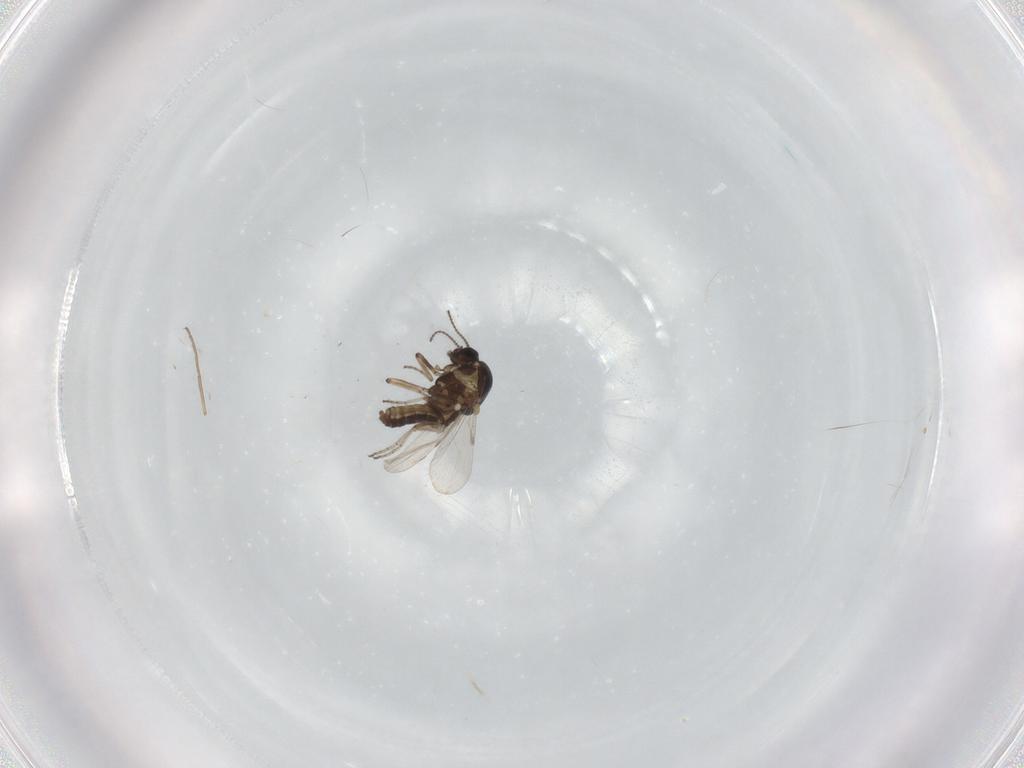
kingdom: Animalia
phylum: Arthropoda
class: Insecta
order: Diptera
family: Ceratopogonidae
